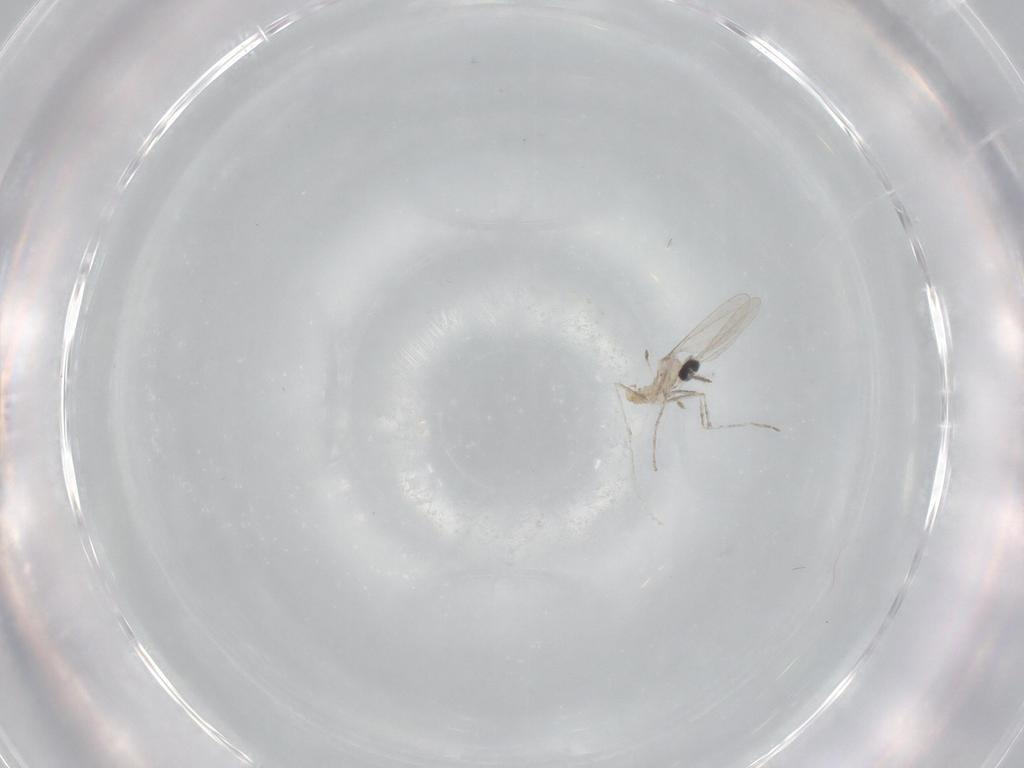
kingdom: Animalia
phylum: Arthropoda
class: Insecta
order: Diptera
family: Cecidomyiidae
